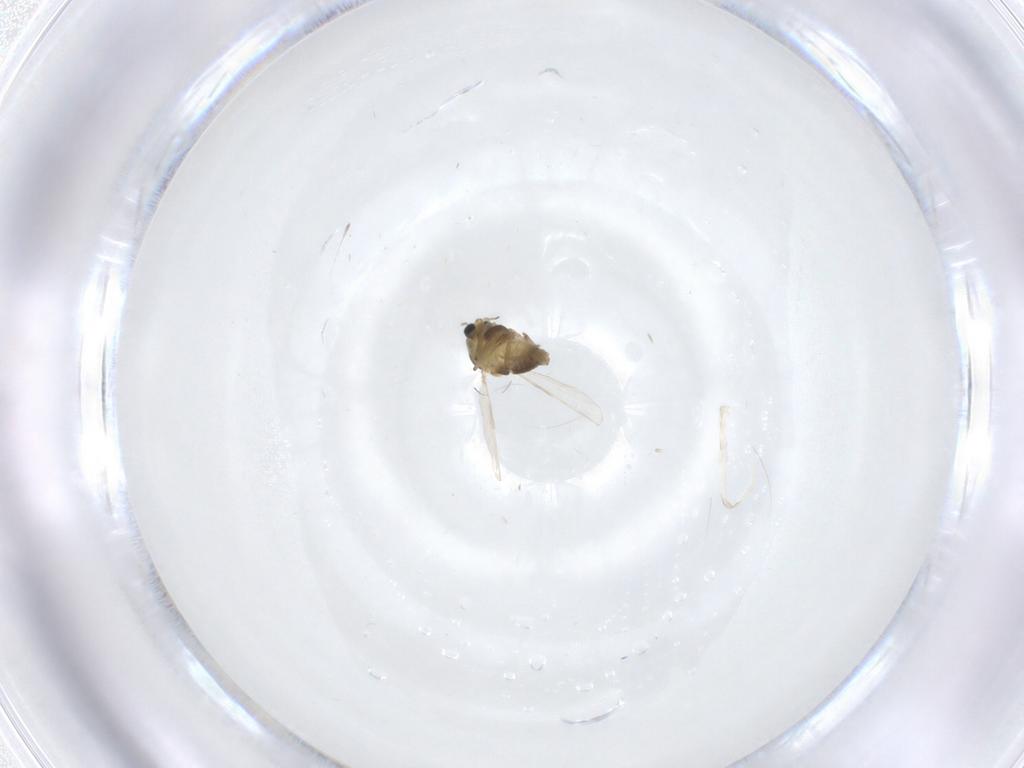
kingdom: Animalia
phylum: Arthropoda
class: Insecta
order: Diptera
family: Chironomidae
